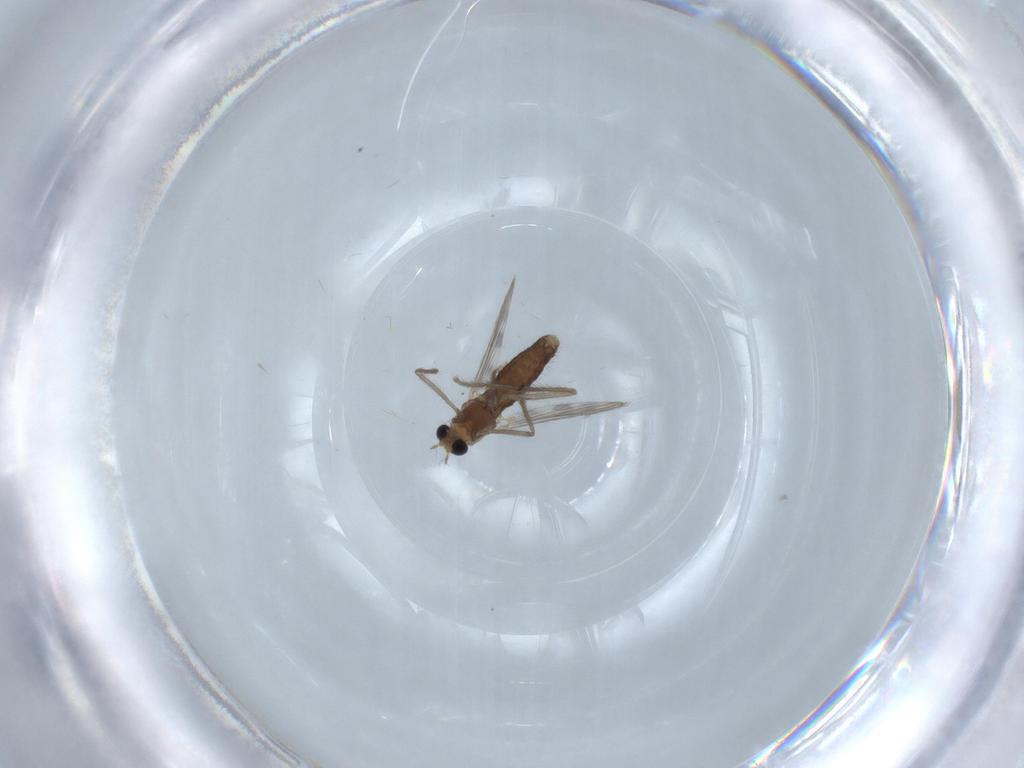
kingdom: Animalia
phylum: Arthropoda
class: Insecta
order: Diptera
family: Chironomidae
